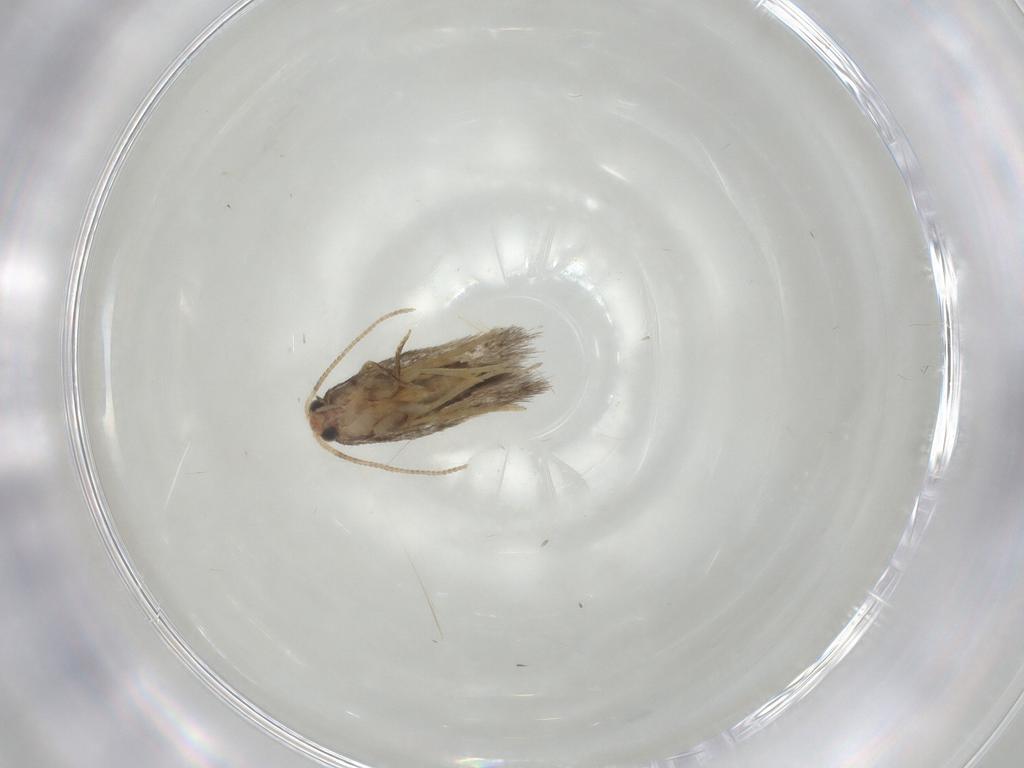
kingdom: Animalia
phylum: Arthropoda
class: Insecta
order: Lepidoptera
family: Nepticulidae
